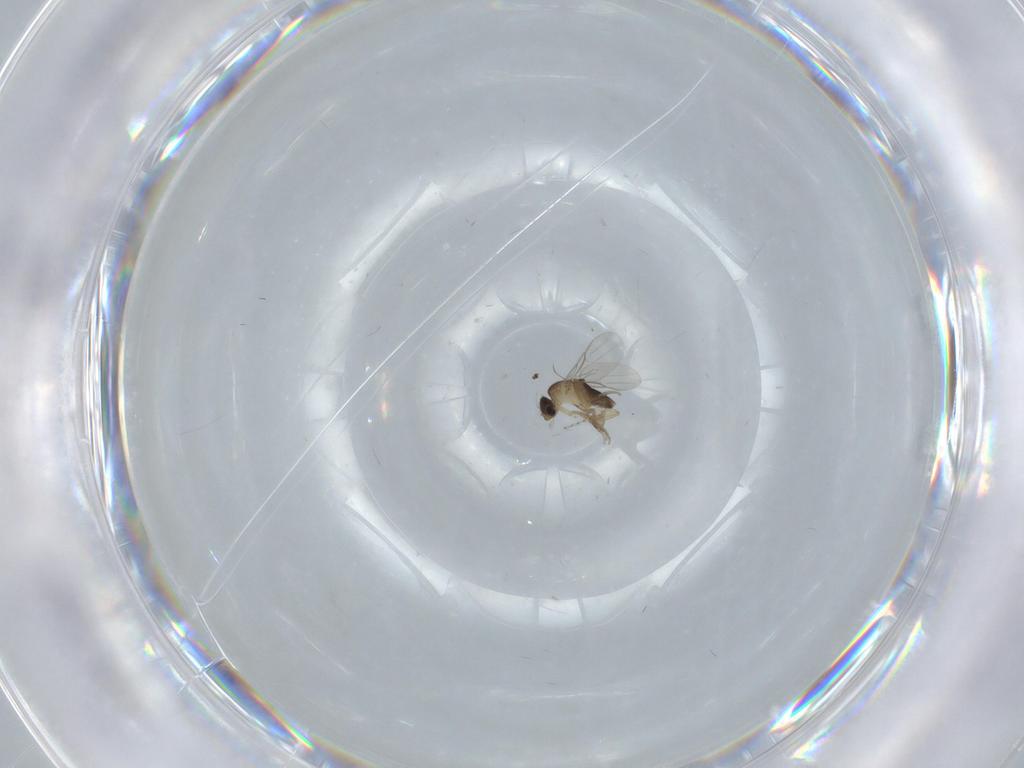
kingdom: Animalia
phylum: Arthropoda
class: Insecta
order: Diptera
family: Phoridae
